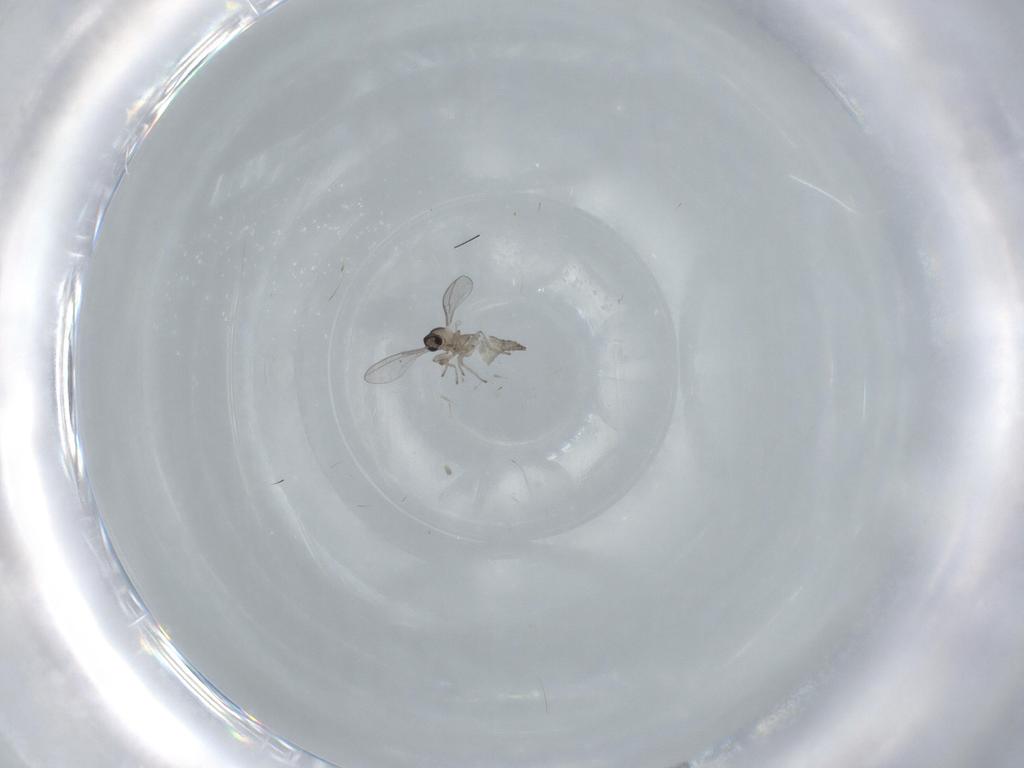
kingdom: Animalia
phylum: Arthropoda
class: Insecta
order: Diptera
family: Cecidomyiidae
